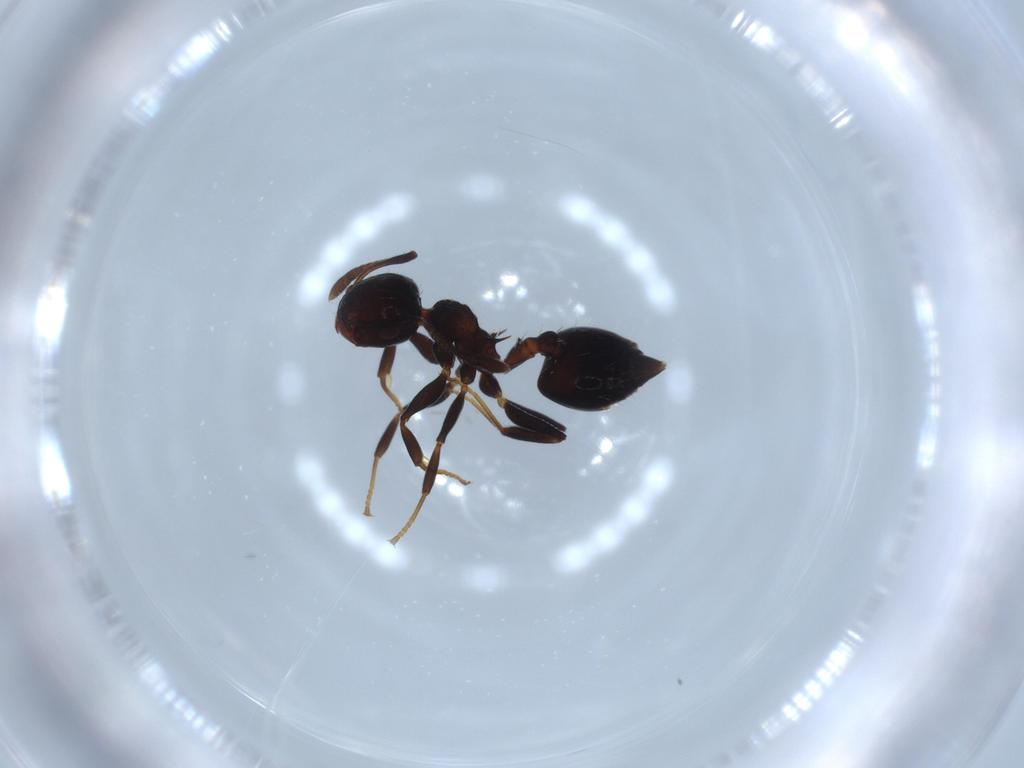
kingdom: Animalia
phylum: Arthropoda
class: Insecta
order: Hymenoptera
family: Formicidae
